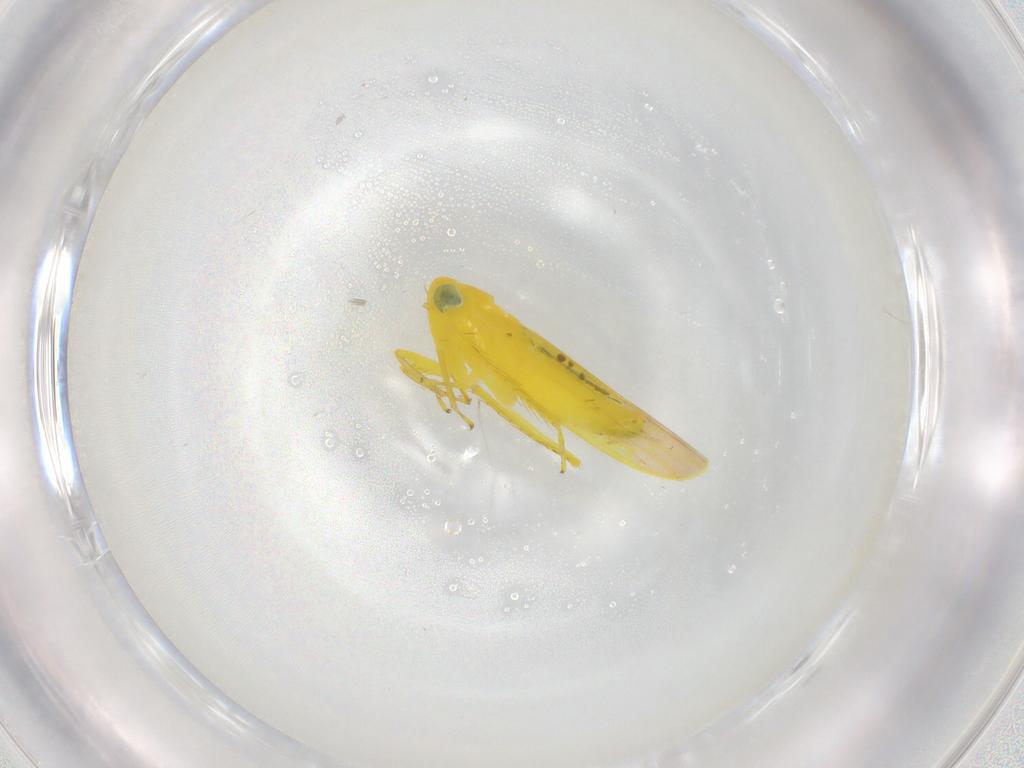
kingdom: Animalia
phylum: Arthropoda
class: Insecta
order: Hemiptera
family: Cicadellidae
